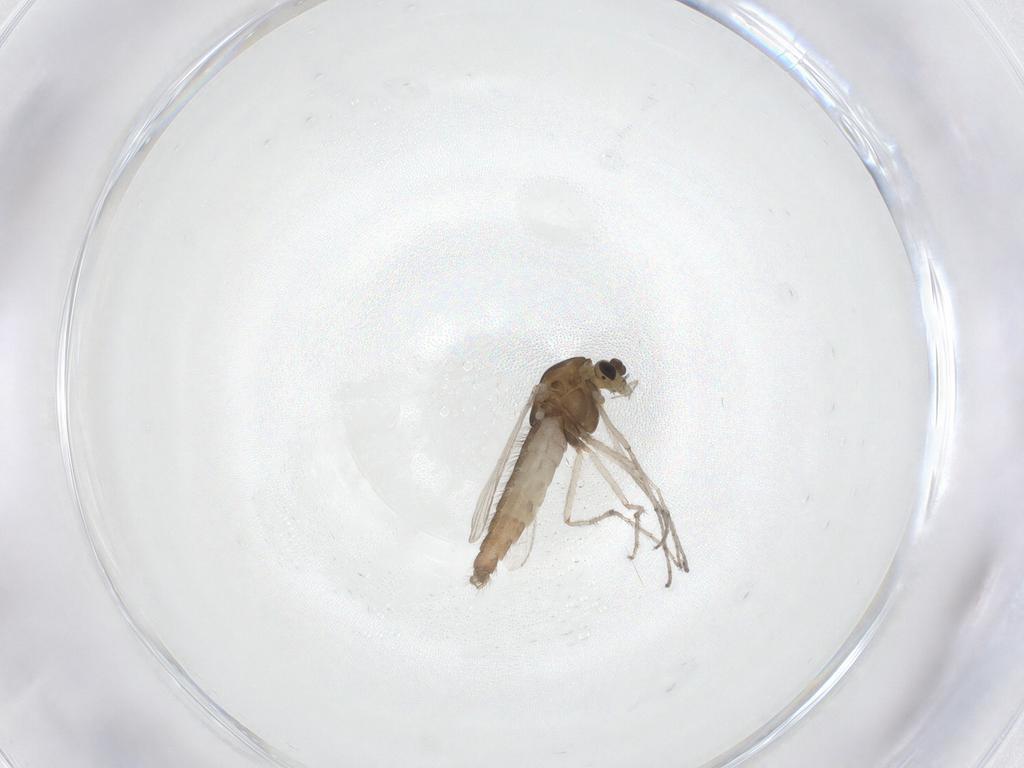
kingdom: Animalia
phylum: Arthropoda
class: Insecta
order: Diptera
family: Chironomidae
